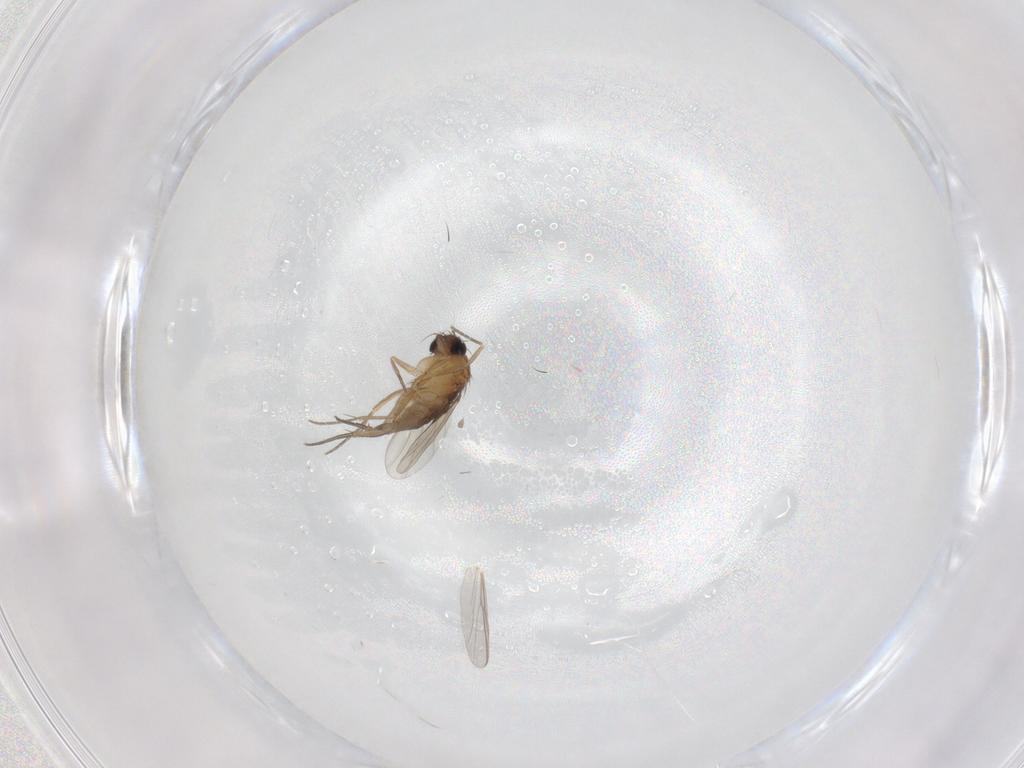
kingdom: Animalia
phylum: Arthropoda
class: Insecta
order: Diptera
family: Phoridae
